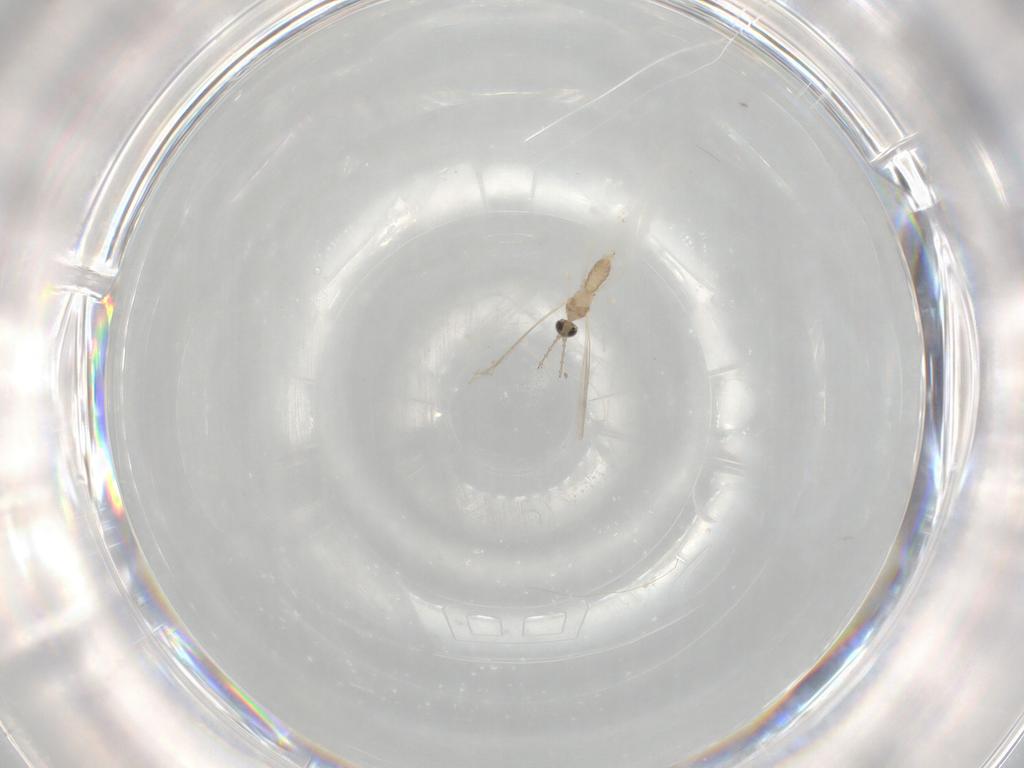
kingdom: Animalia
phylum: Arthropoda
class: Insecta
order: Diptera
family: Cecidomyiidae
